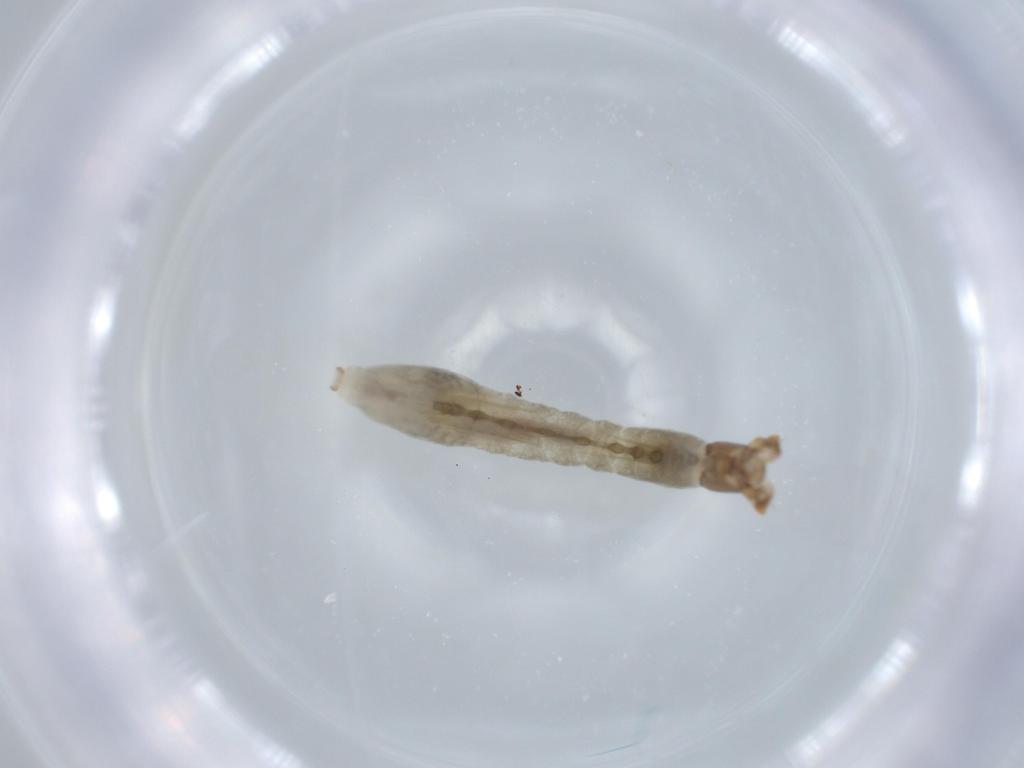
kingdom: Animalia
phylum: Arthropoda
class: Insecta
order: Diptera
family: Simuliidae
